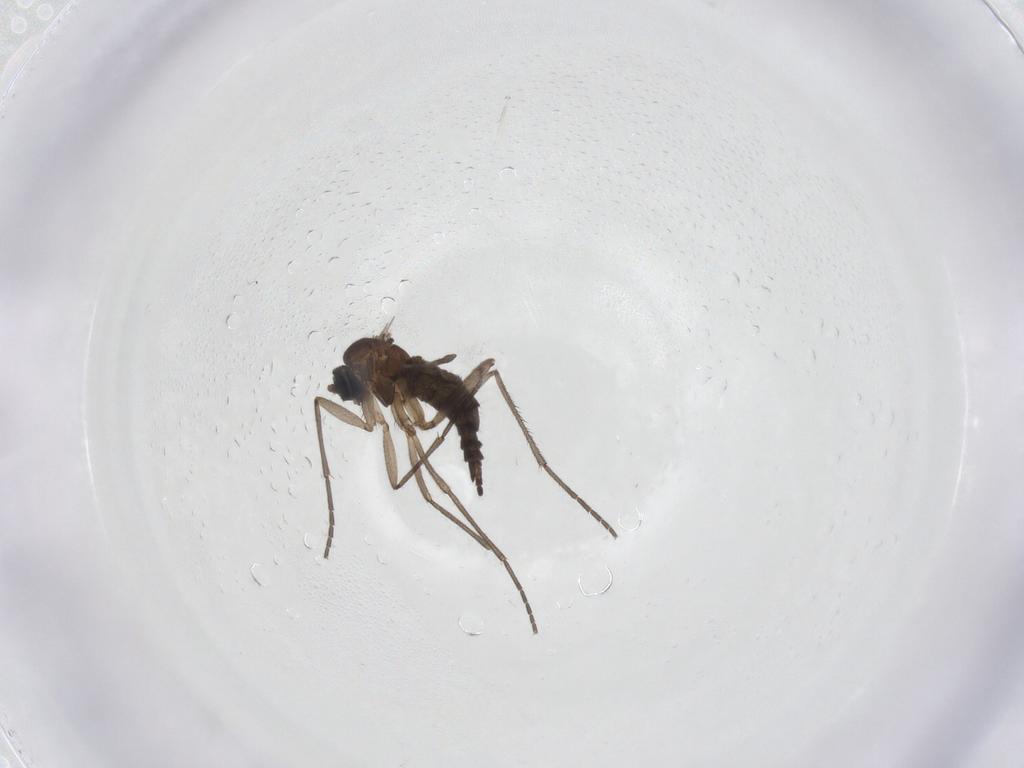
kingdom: Animalia
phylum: Arthropoda
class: Insecta
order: Diptera
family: Sciaridae
